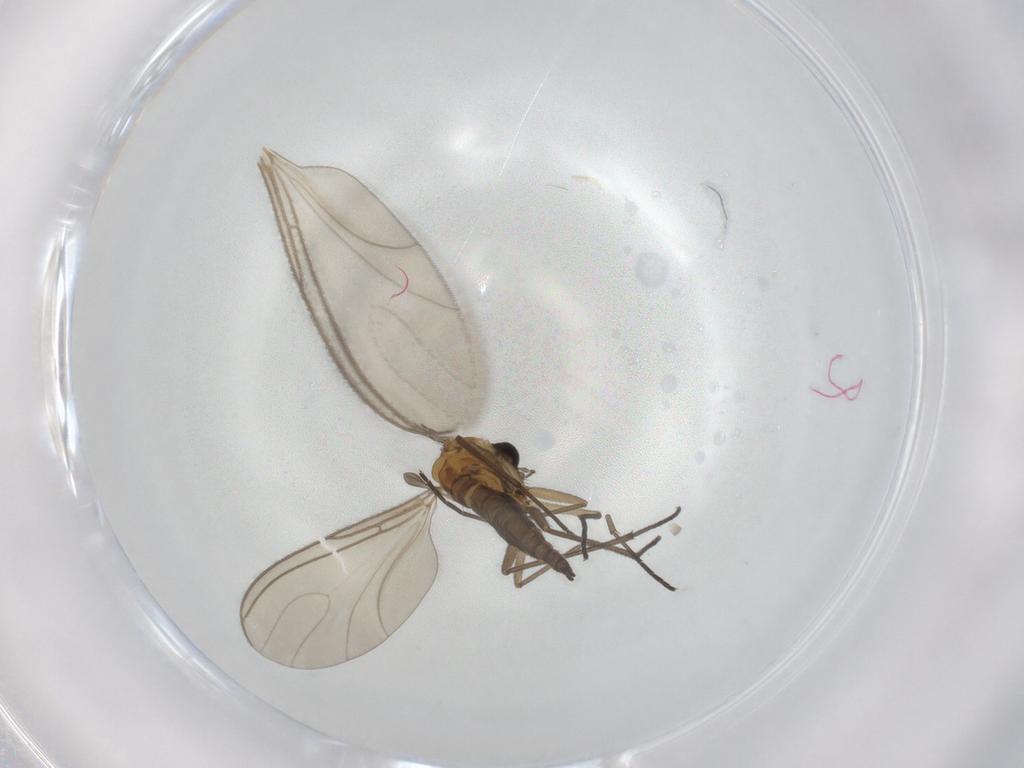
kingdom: Animalia
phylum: Arthropoda
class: Insecta
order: Diptera
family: Sciaridae
